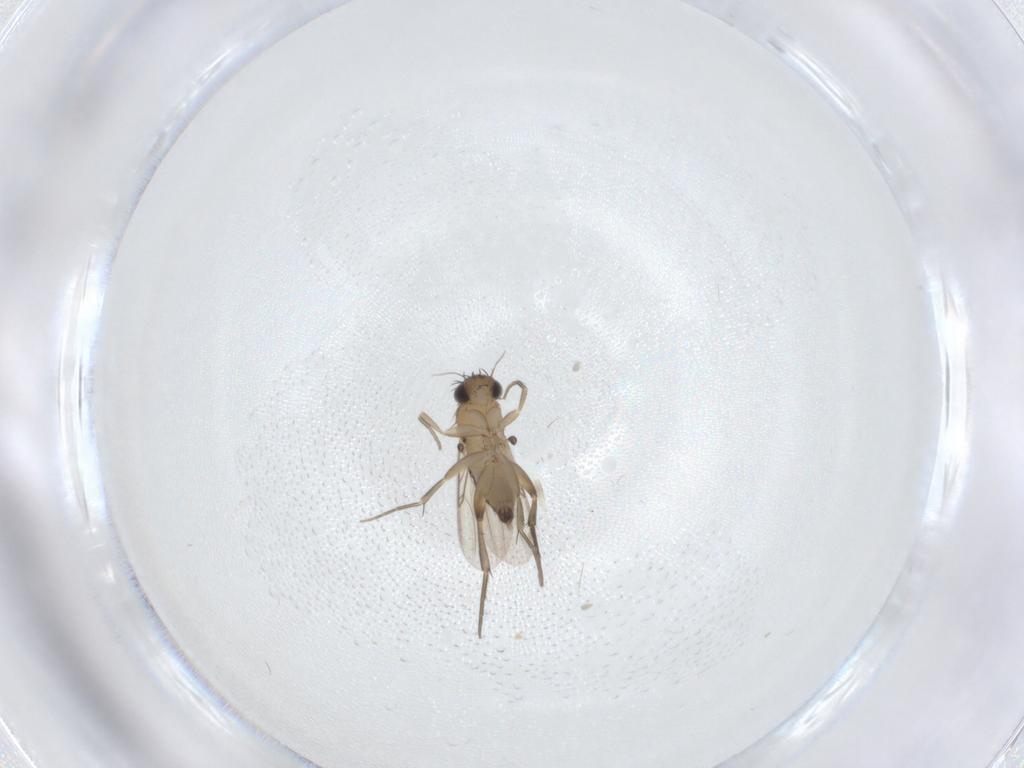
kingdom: Animalia
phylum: Arthropoda
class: Insecta
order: Diptera
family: Phoridae
